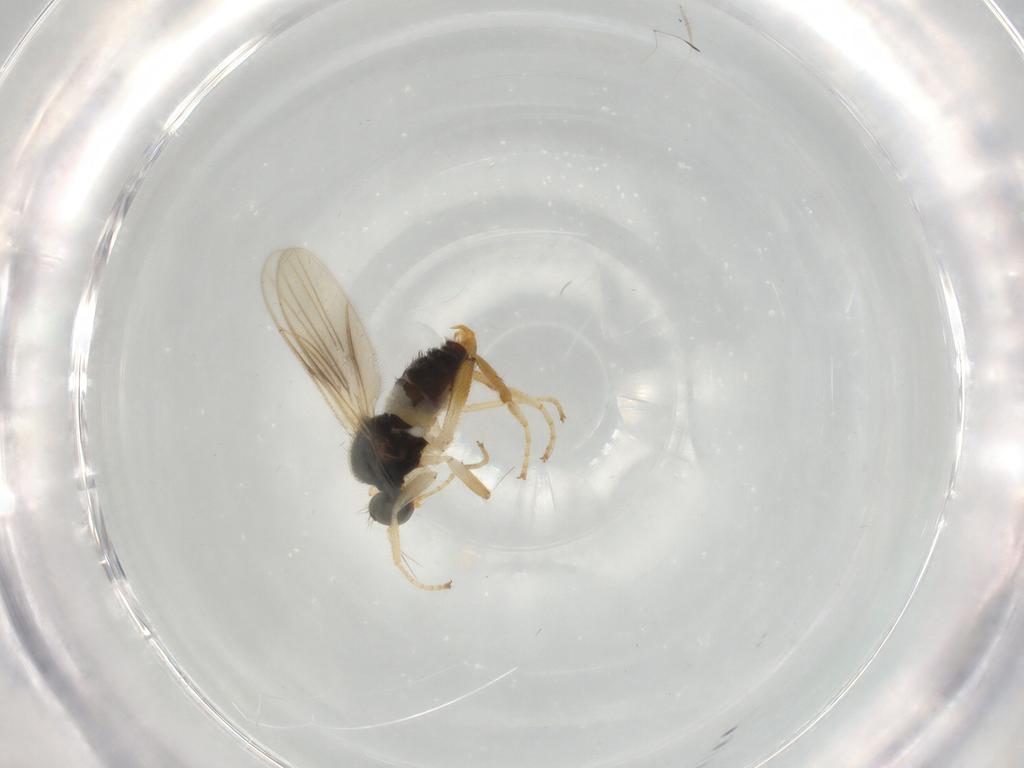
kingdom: Animalia
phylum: Arthropoda
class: Insecta
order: Diptera
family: Hybotidae
